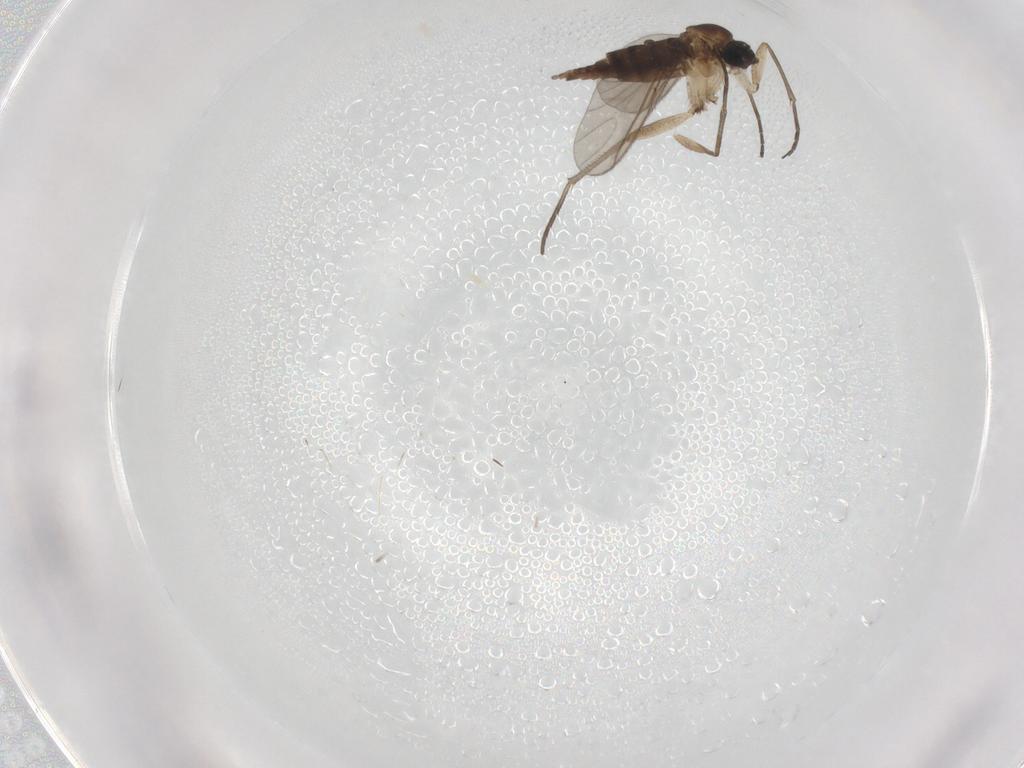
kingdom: Animalia
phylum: Arthropoda
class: Insecta
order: Diptera
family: Sciaridae
